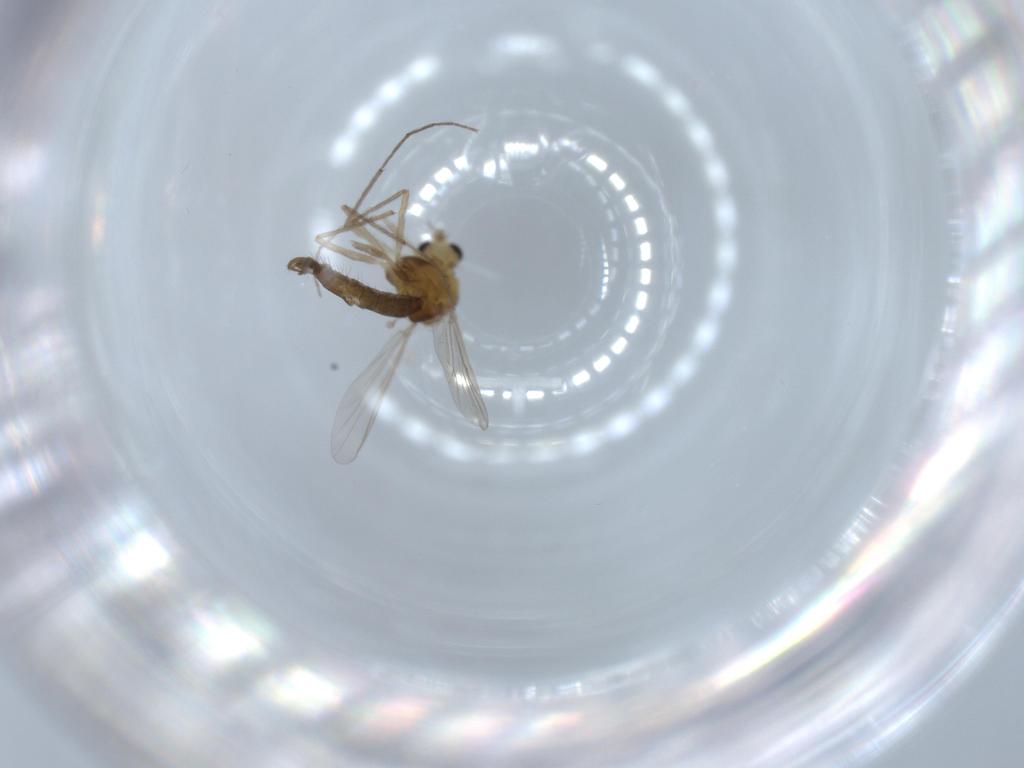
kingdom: Animalia
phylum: Arthropoda
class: Insecta
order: Diptera
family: Chironomidae
